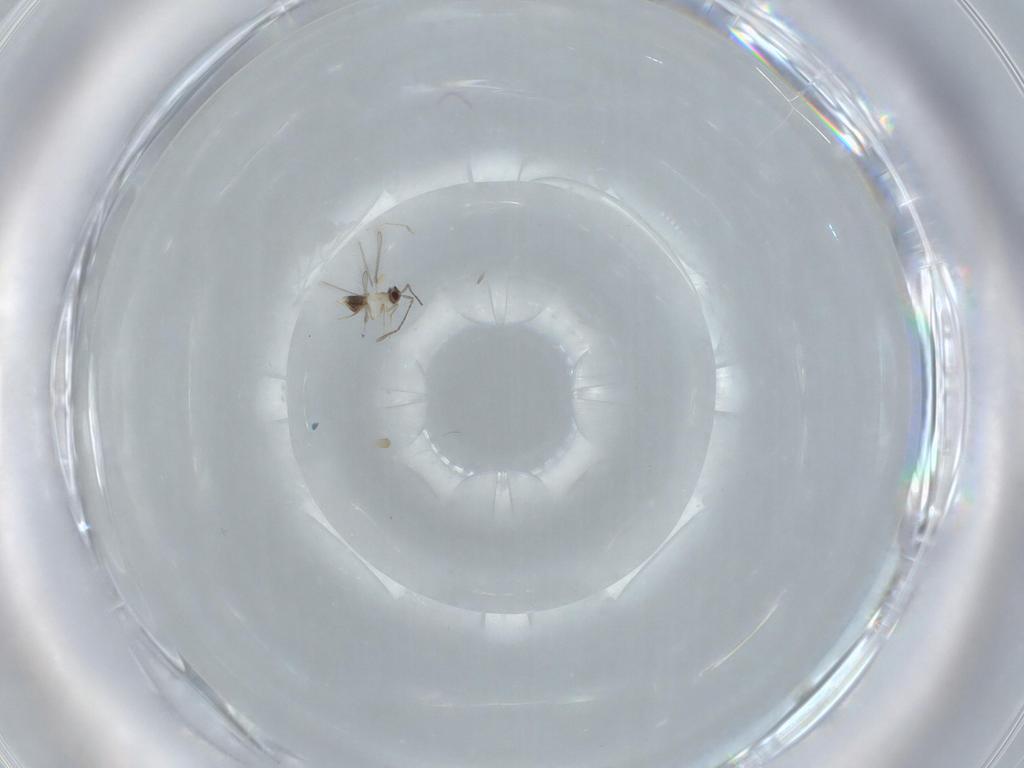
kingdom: Animalia
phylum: Arthropoda
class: Insecta
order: Hymenoptera
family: Mymaridae
